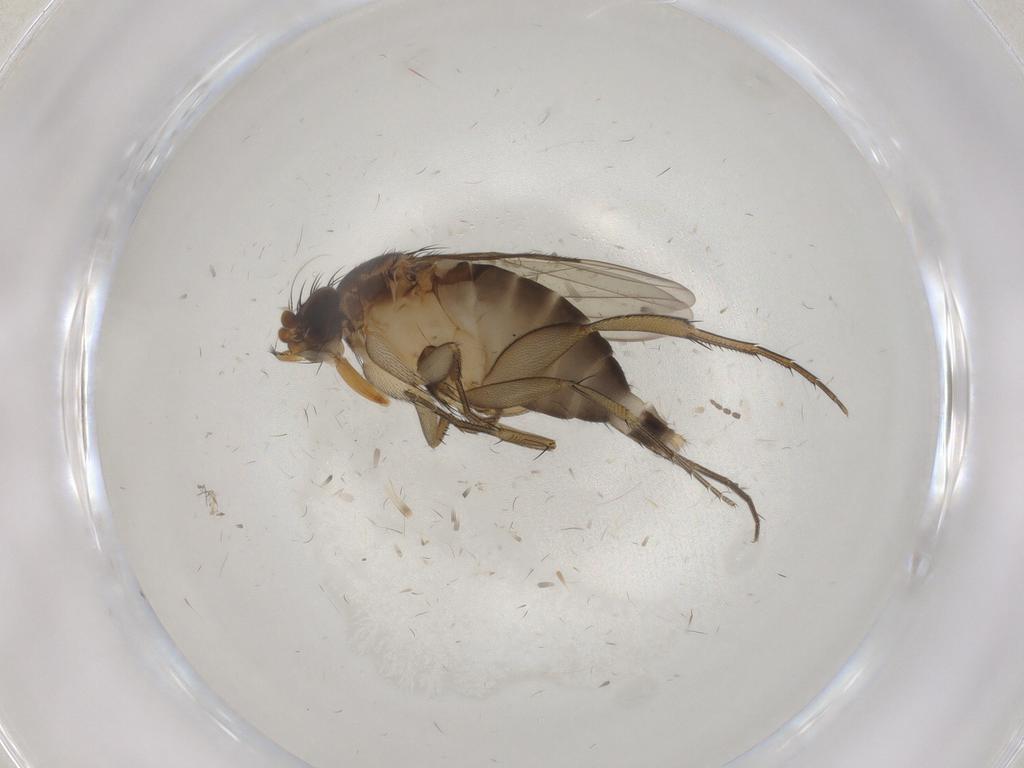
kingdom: Animalia
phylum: Arthropoda
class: Insecta
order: Diptera
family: Phoridae
